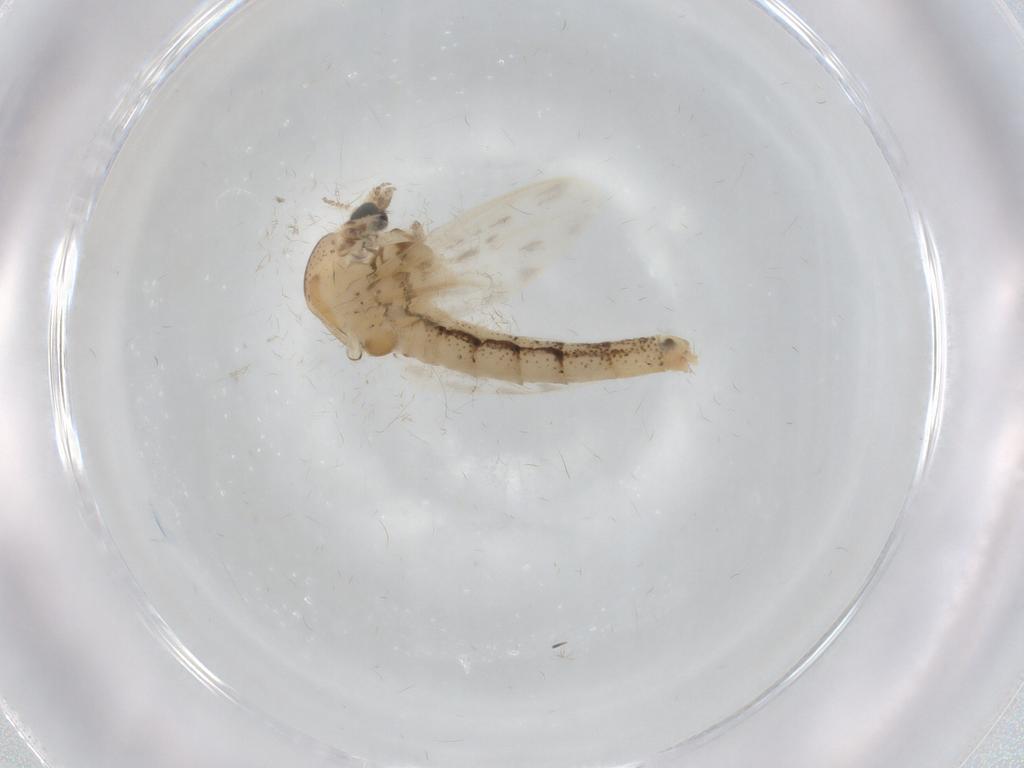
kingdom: Animalia
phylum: Arthropoda
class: Insecta
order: Diptera
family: Chaoboridae
